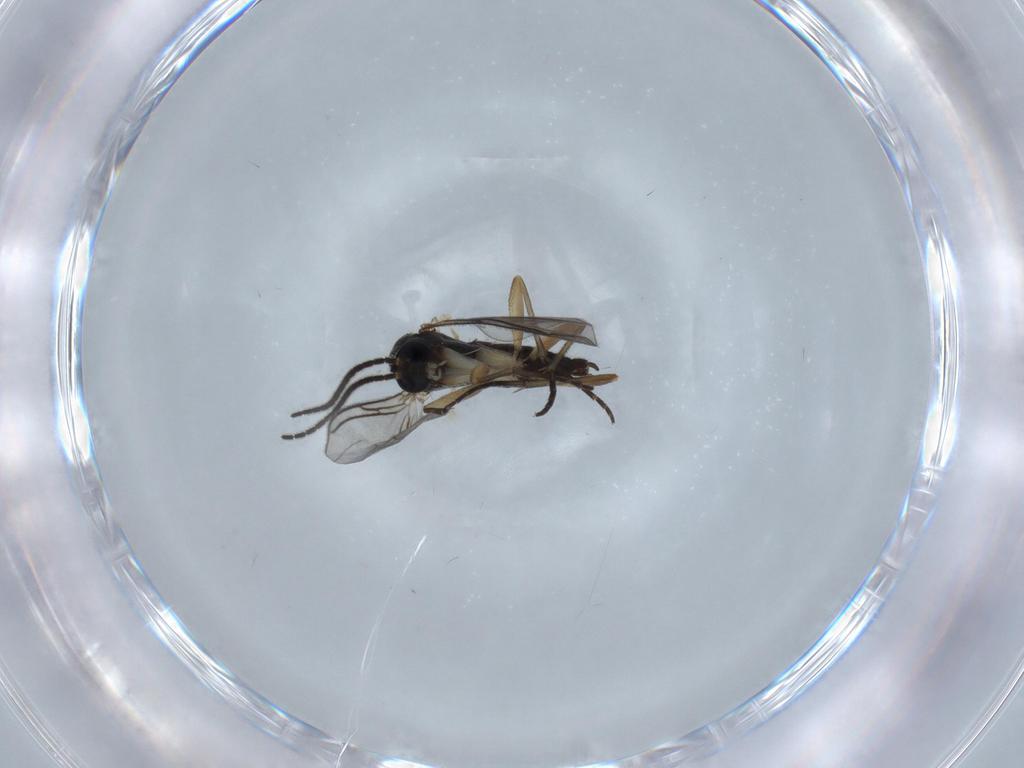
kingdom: Animalia
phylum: Arthropoda
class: Insecta
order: Diptera
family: Sciaridae
